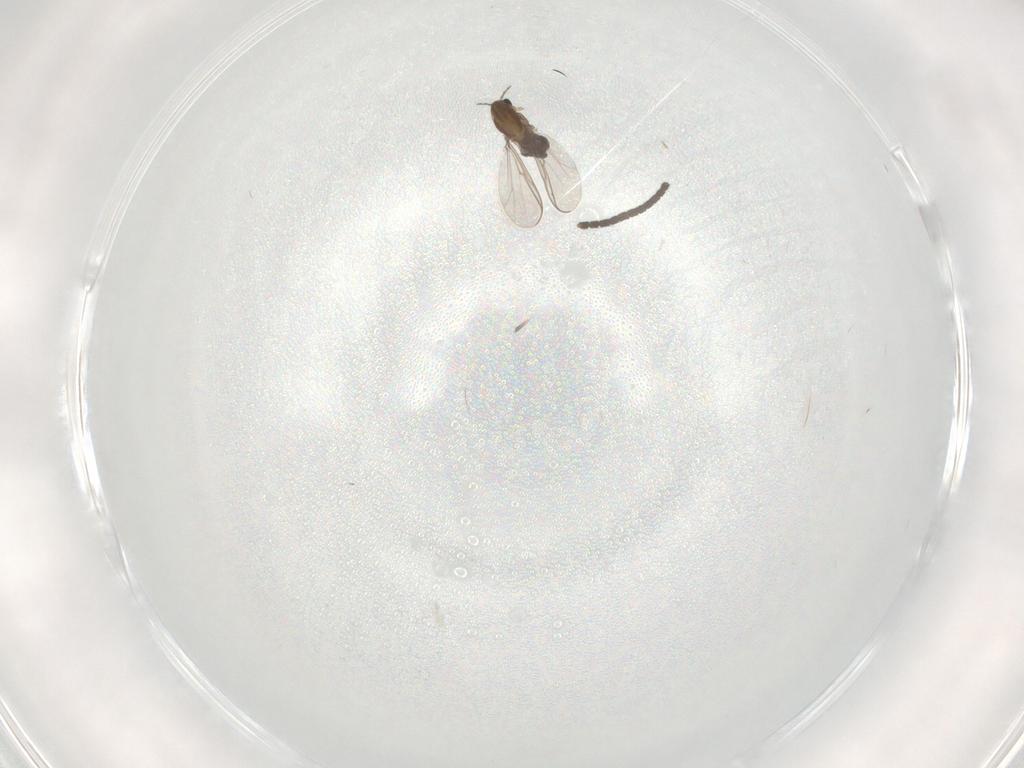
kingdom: Animalia
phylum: Arthropoda
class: Insecta
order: Diptera
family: Chironomidae
